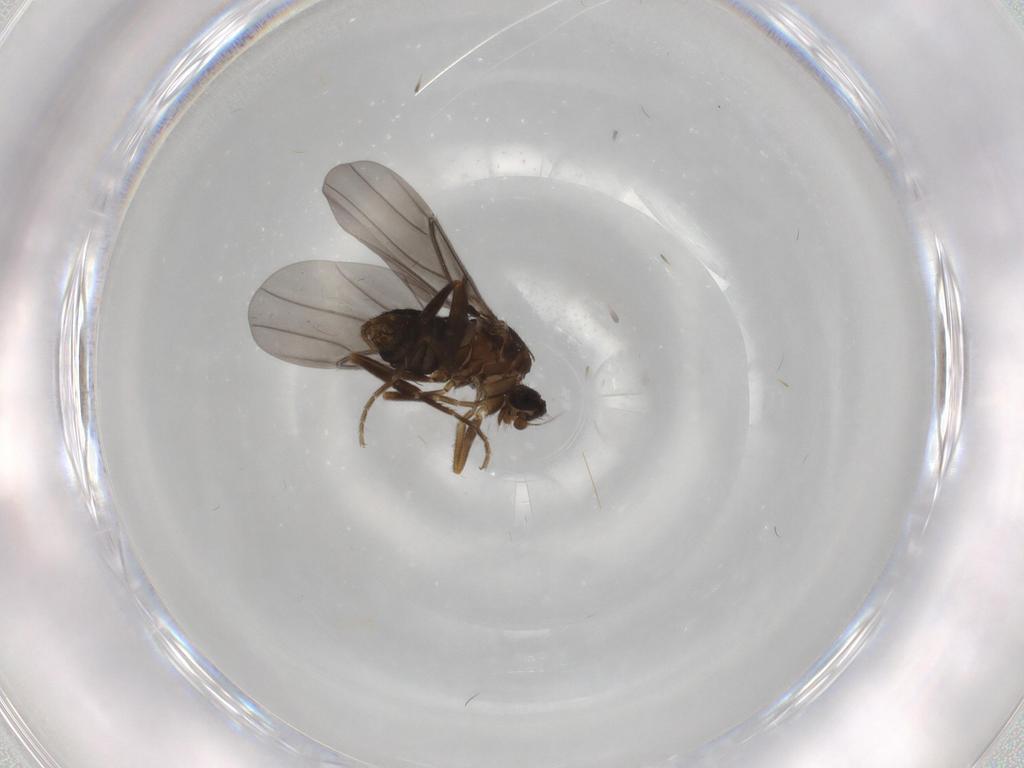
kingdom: Animalia
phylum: Arthropoda
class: Insecta
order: Diptera
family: Phoridae
